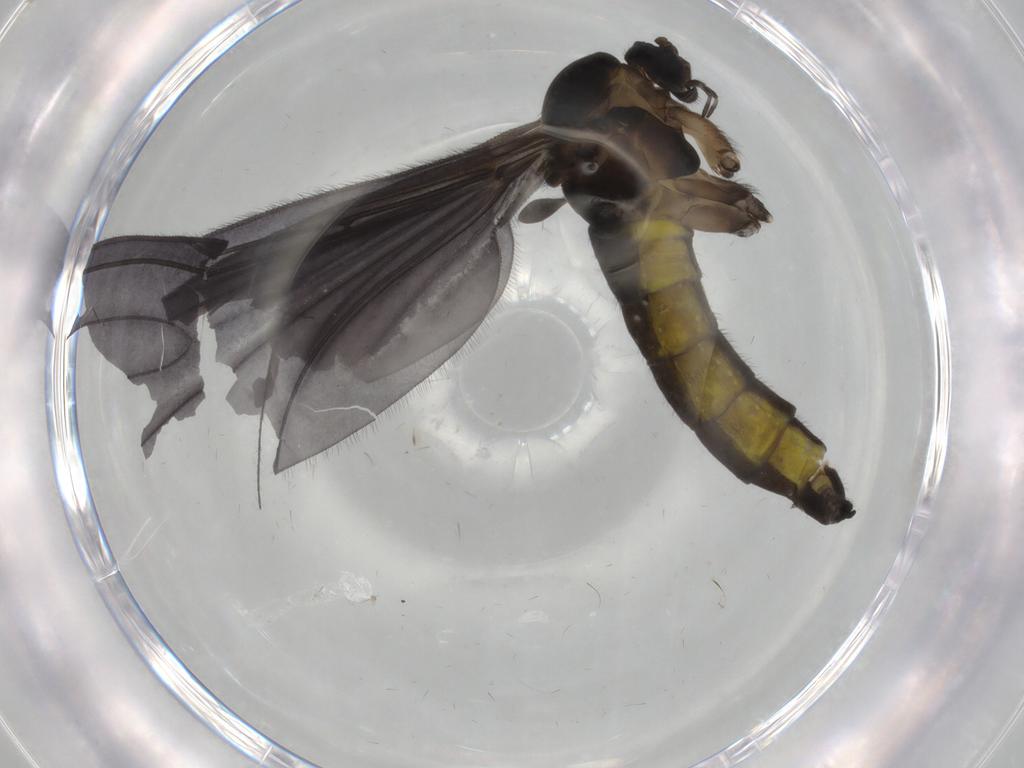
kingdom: Animalia
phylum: Arthropoda
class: Insecta
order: Diptera
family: Sciaridae
